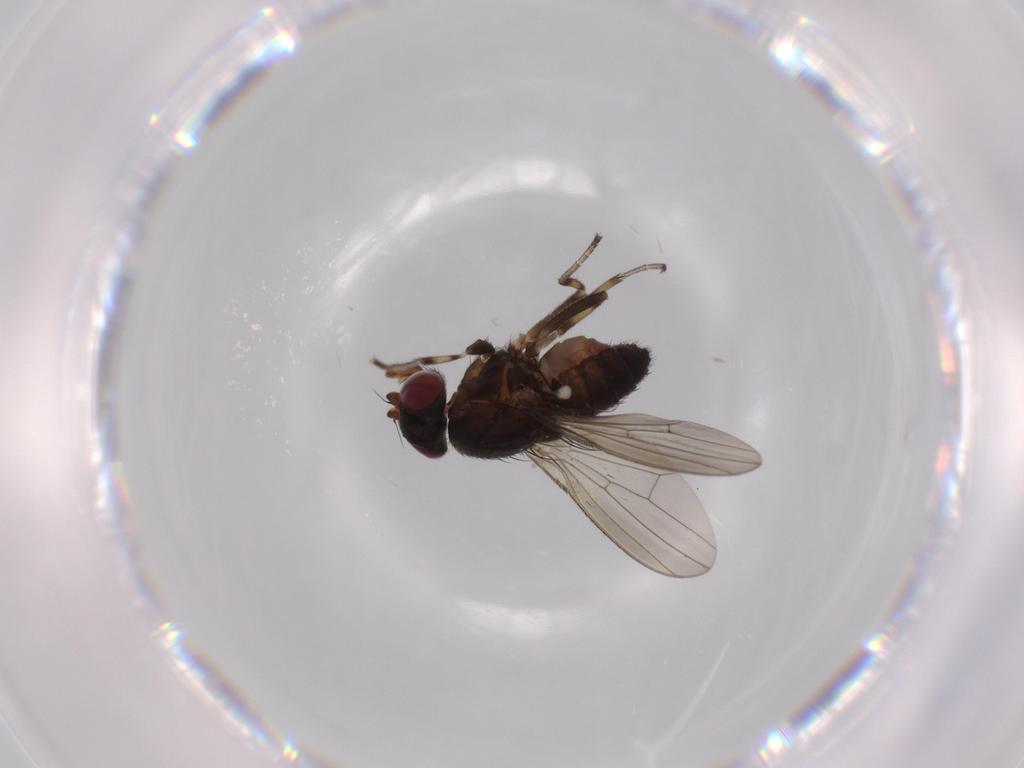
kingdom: Animalia
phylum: Arthropoda
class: Insecta
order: Diptera
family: Heleomyzidae
